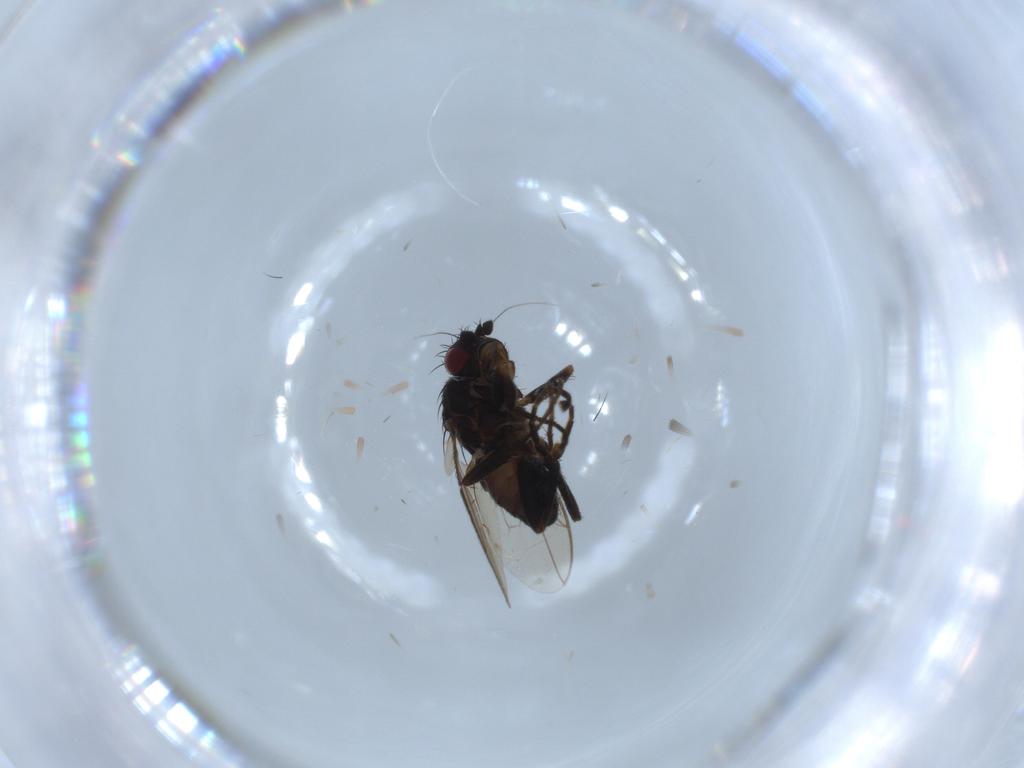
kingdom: Animalia
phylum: Arthropoda
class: Insecta
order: Diptera
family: Sphaeroceridae
